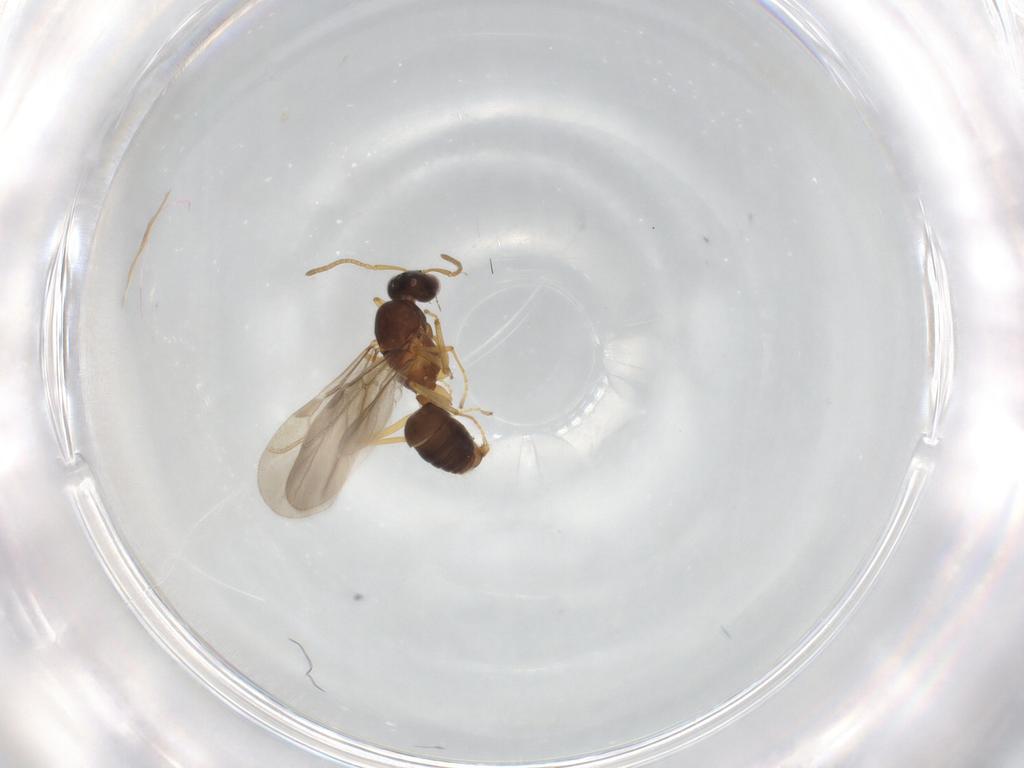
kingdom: Animalia
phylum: Arthropoda
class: Insecta
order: Hymenoptera
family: Formicidae
